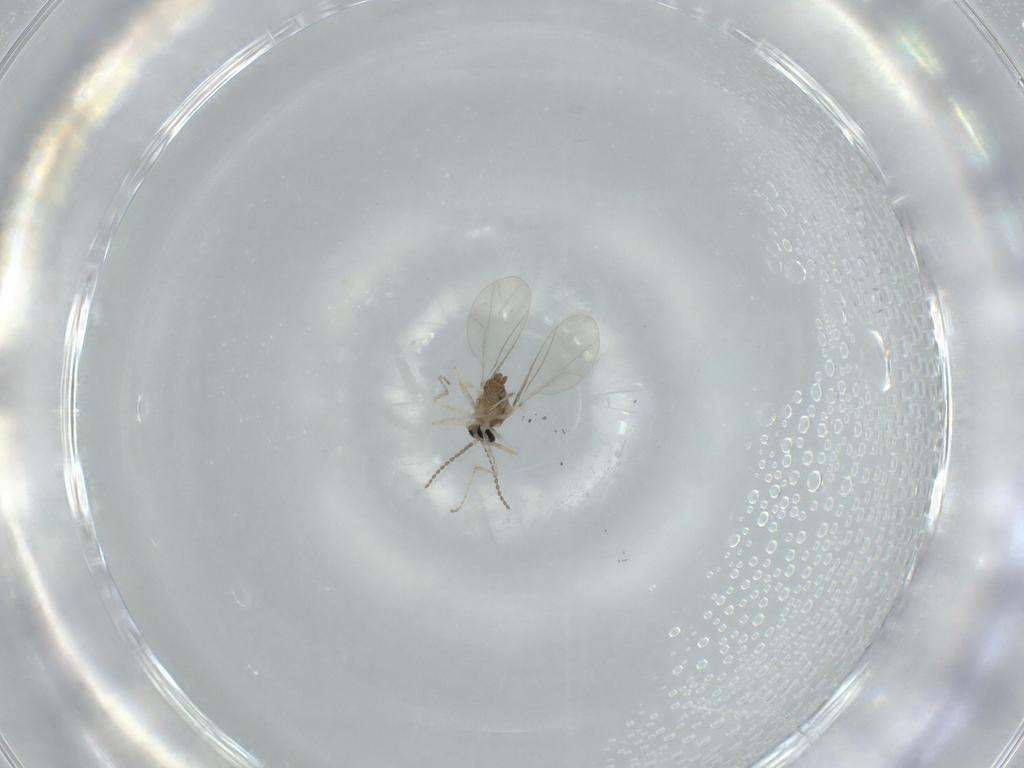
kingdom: Animalia
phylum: Arthropoda
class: Insecta
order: Diptera
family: Cecidomyiidae
